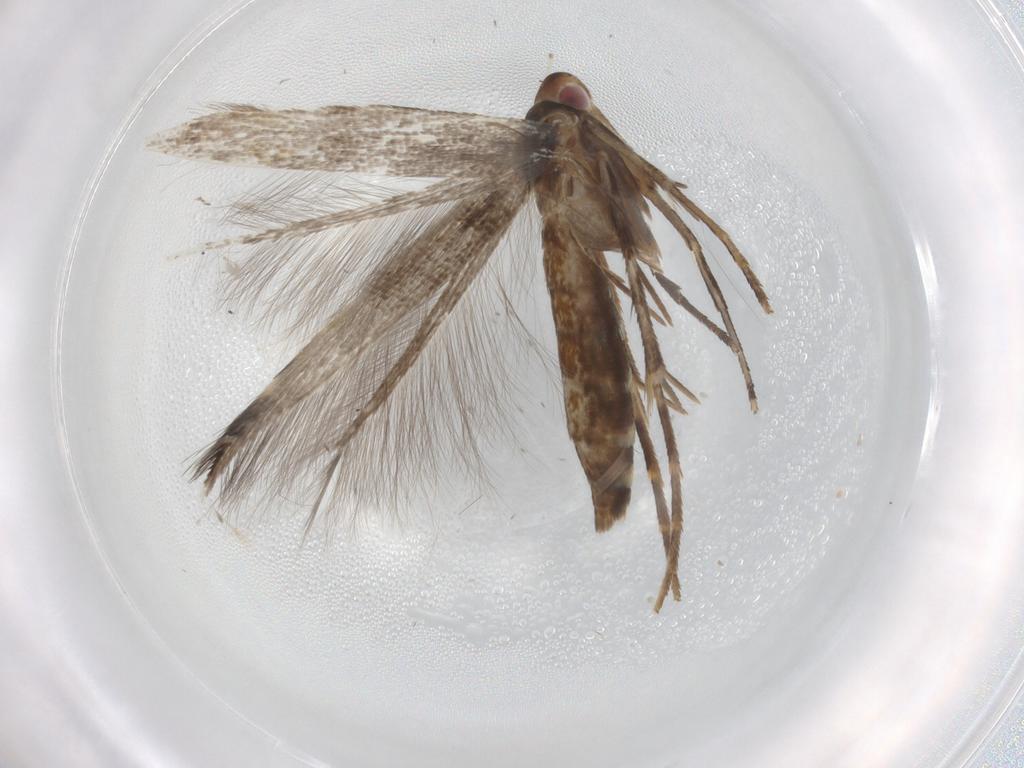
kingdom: Animalia
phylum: Arthropoda
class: Insecta
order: Lepidoptera
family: Cosmopterigidae
